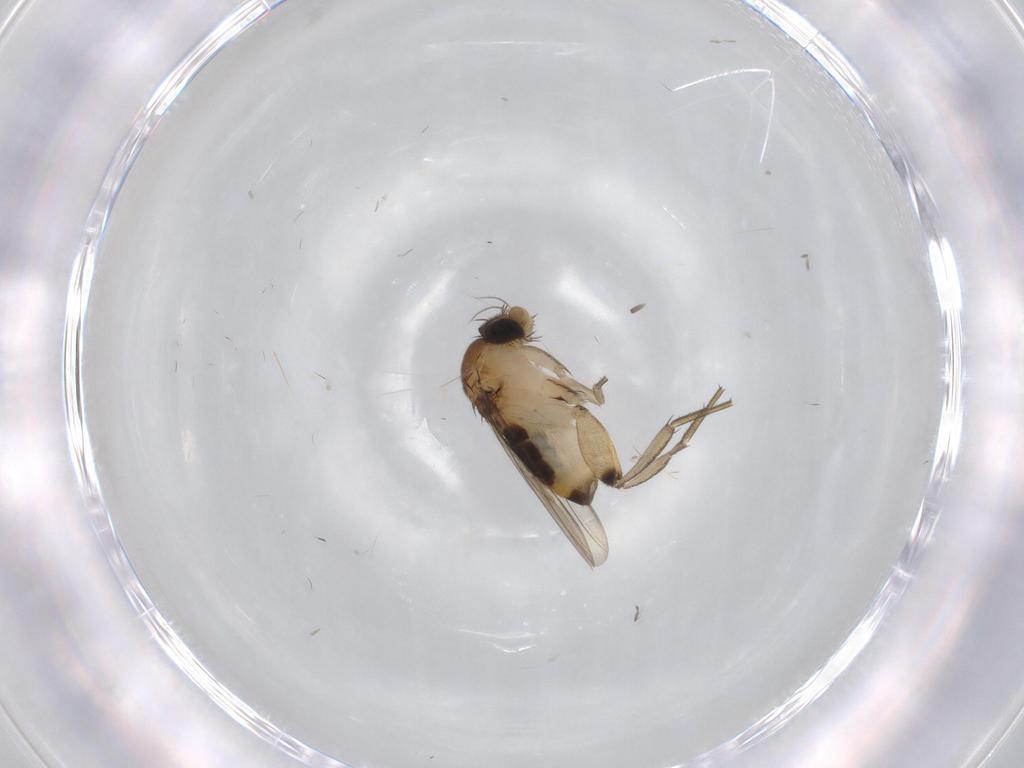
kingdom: Animalia
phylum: Arthropoda
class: Insecta
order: Diptera
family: Phoridae
